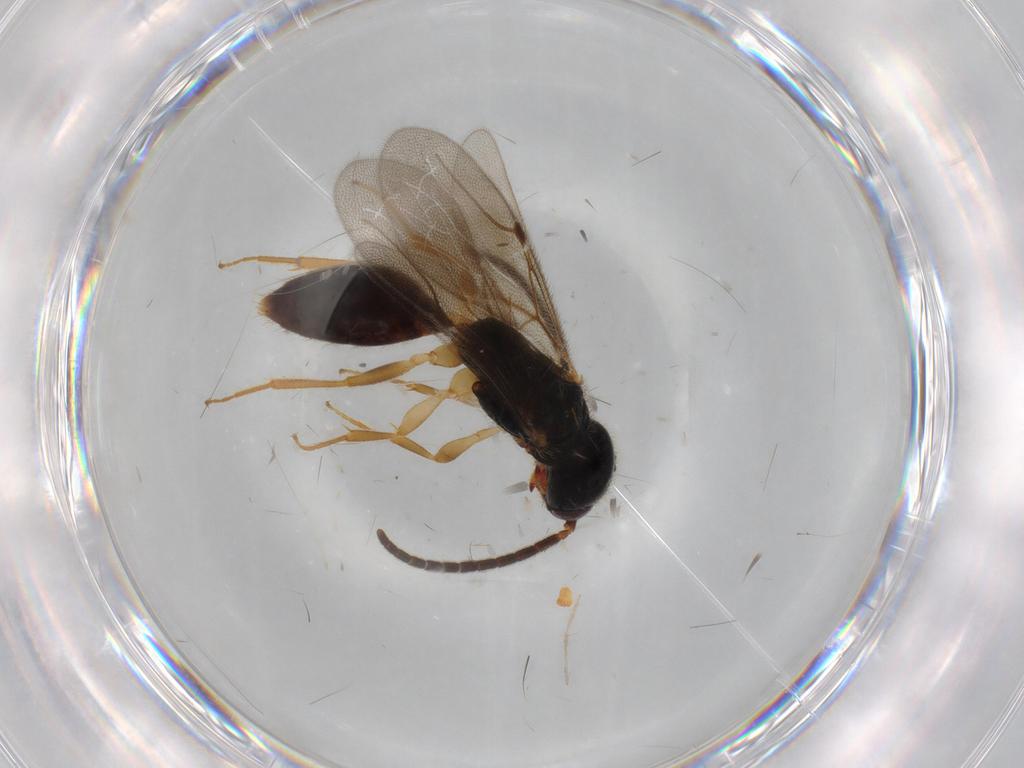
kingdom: Animalia
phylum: Arthropoda
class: Insecta
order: Hymenoptera
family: Bethylidae
